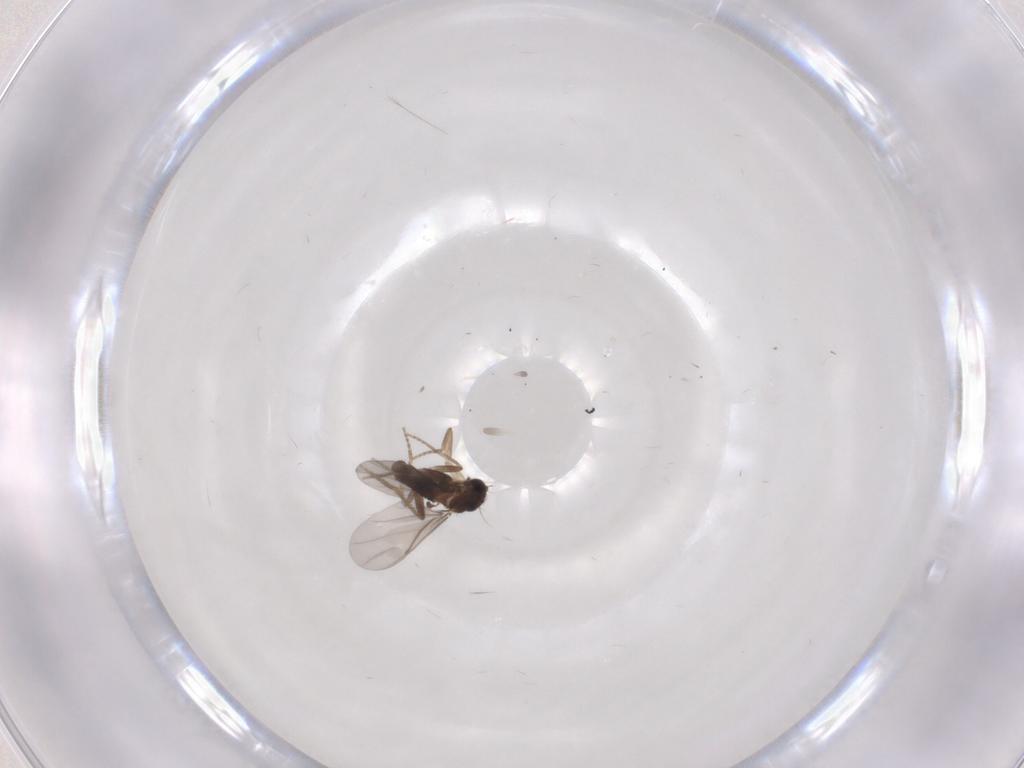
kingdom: Animalia
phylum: Arthropoda
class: Insecta
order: Diptera
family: Cecidomyiidae
